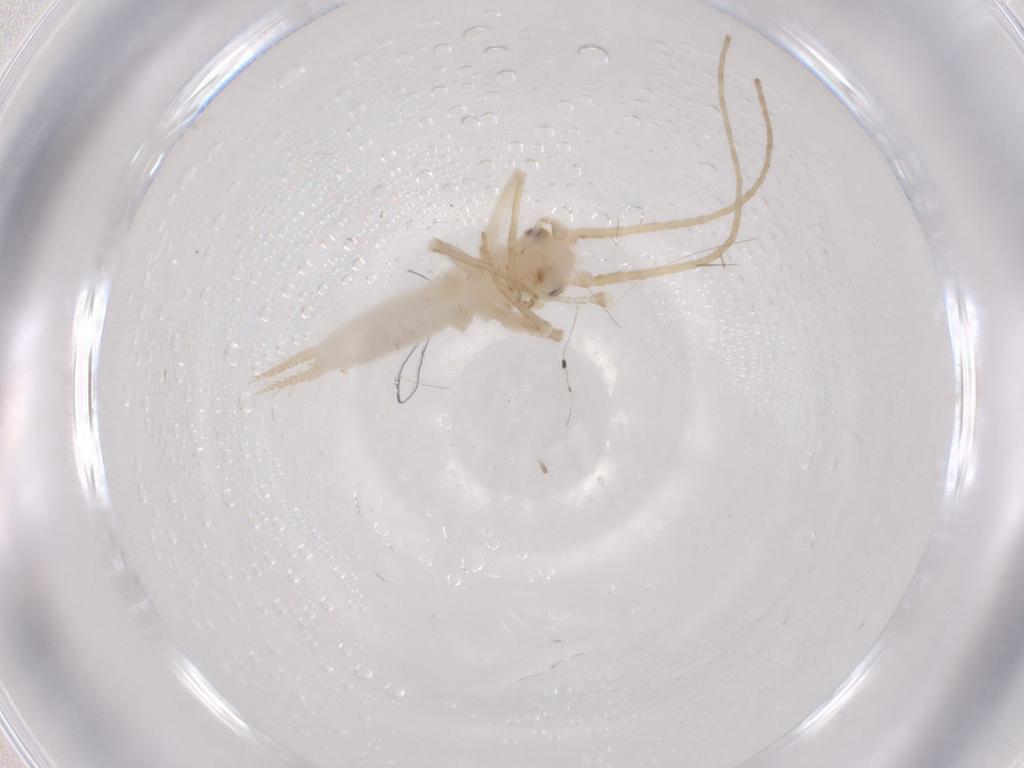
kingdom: Animalia
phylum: Arthropoda
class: Insecta
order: Orthoptera
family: Trigonidiidae
